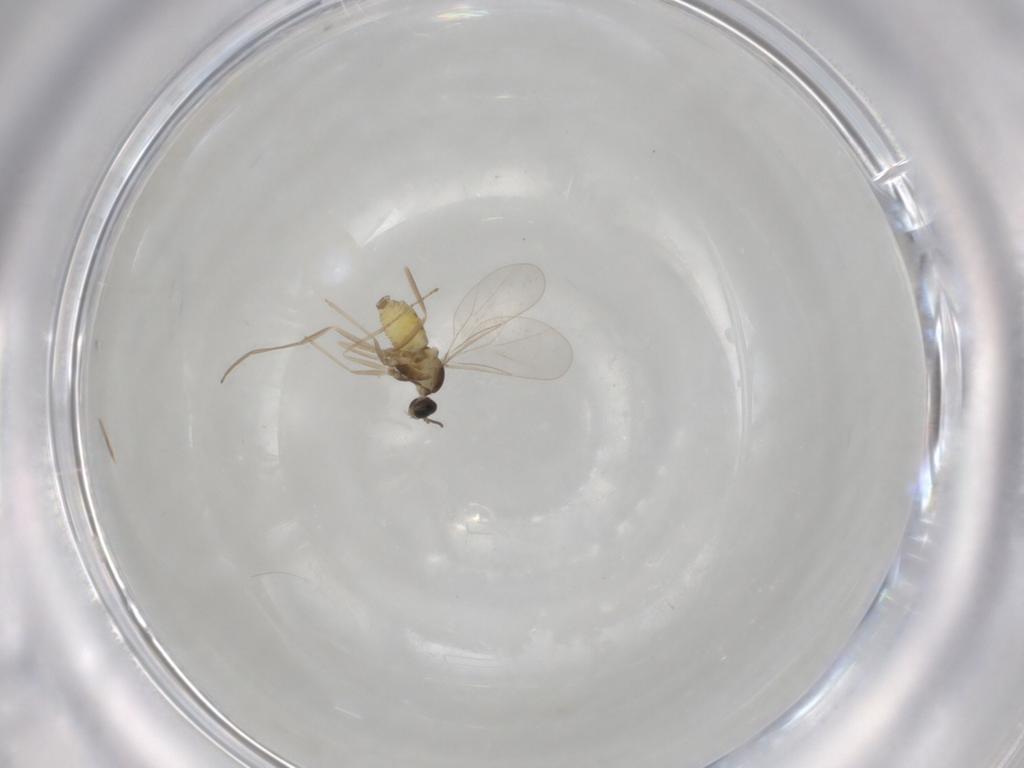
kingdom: Animalia
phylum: Arthropoda
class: Insecta
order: Diptera
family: Cecidomyiidae
